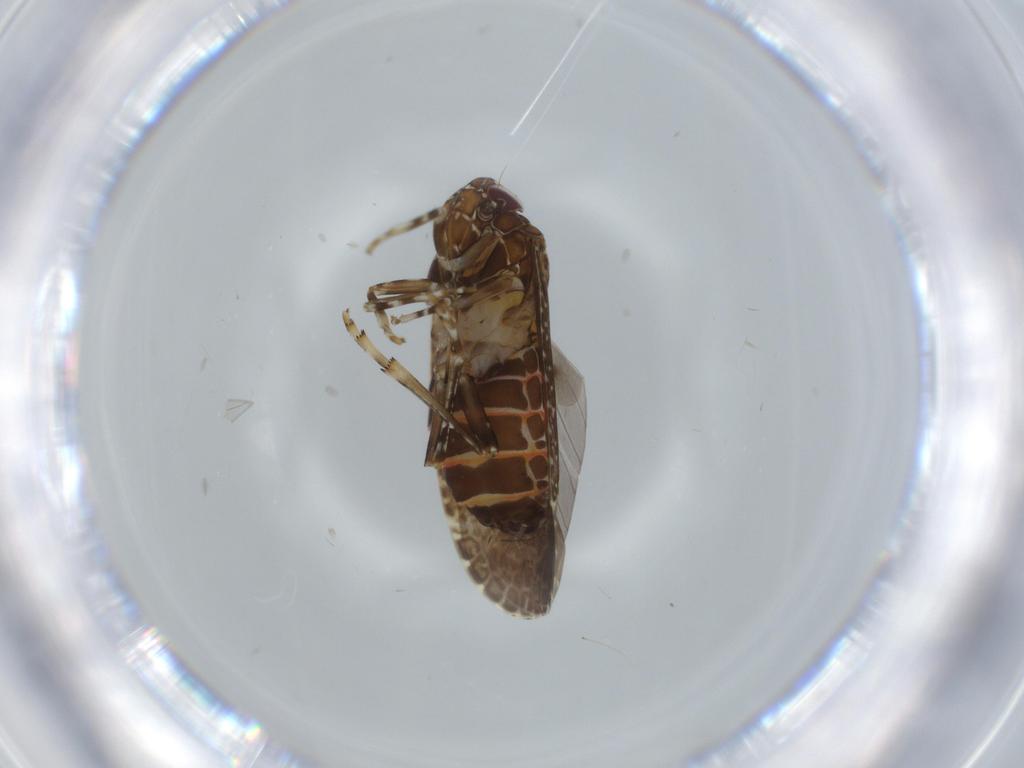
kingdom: Animalia
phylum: Arthropoda
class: Insecta
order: Hemiptera
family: Achilidae
